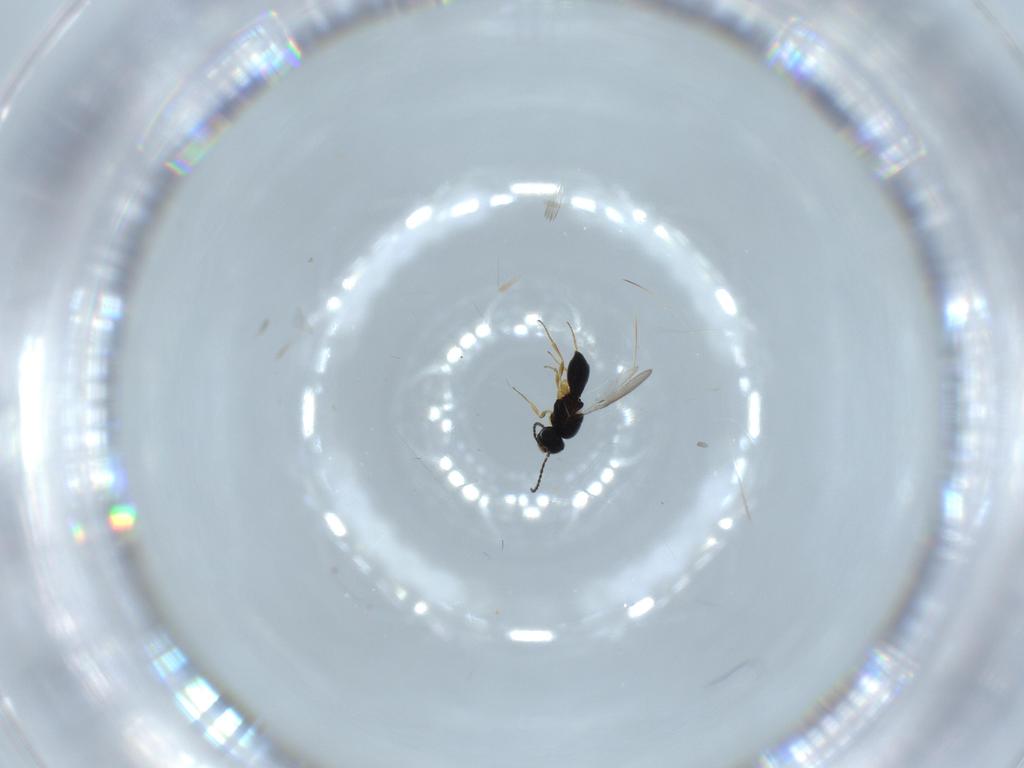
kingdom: Animalia
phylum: Arthropoda
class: Insecta
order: Hymenoptera
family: Scelionidae
